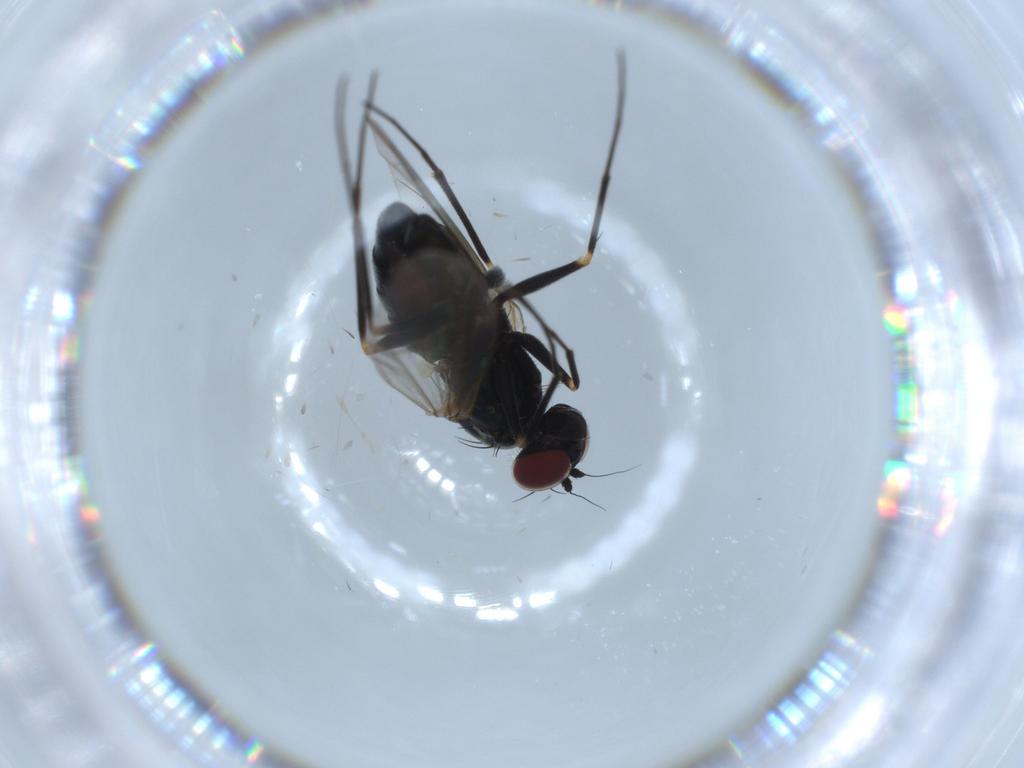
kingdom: Animalia
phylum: Arthropoda
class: Insecta
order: Diptera
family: Dolichopodidae
